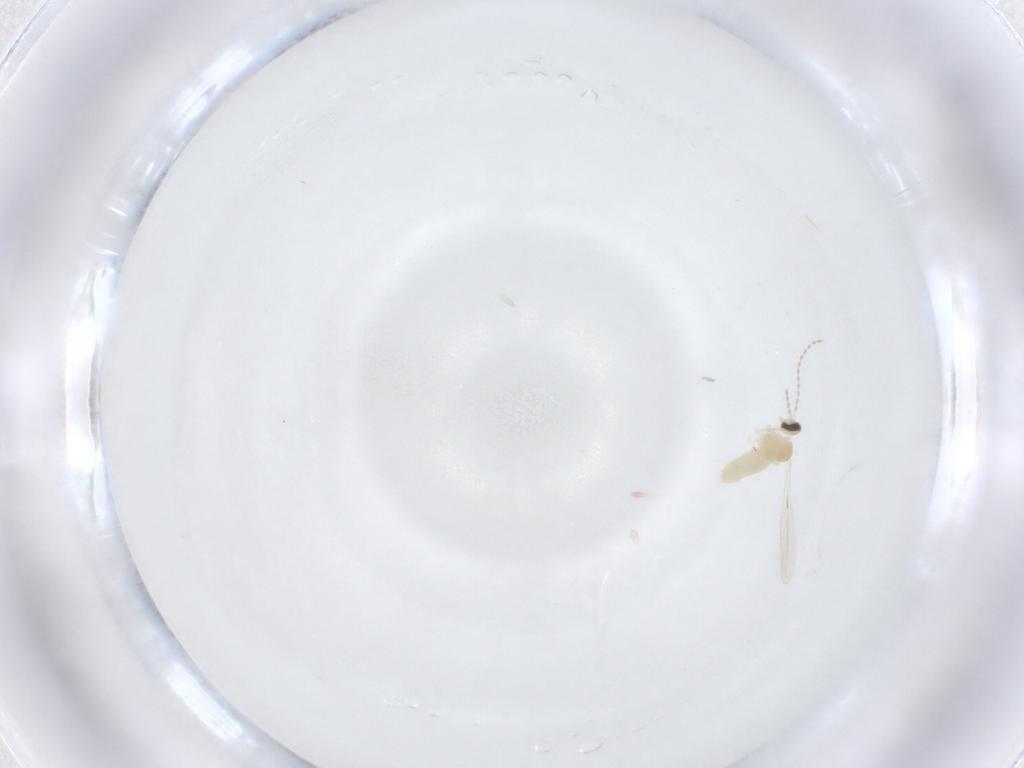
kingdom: Animalia
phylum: Arthropoda
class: Insecta
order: Diptera
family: Cecidomyiidae
